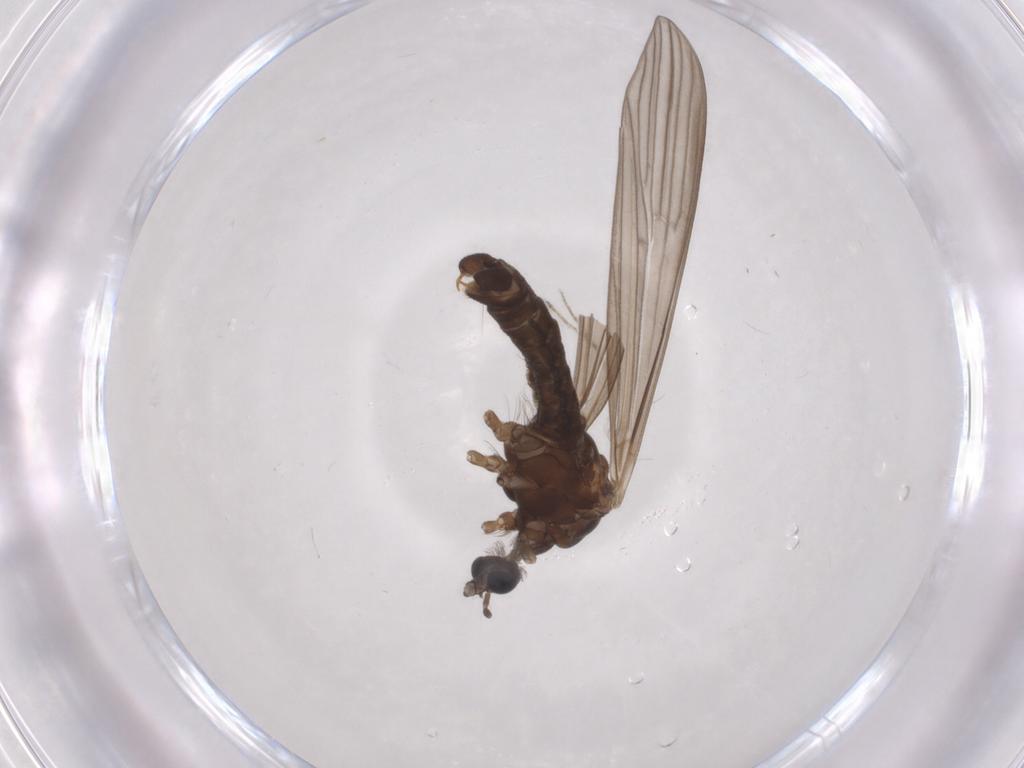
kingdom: Animalia
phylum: Arthropoda
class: Insecta
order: Diptera
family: Limoniidae
